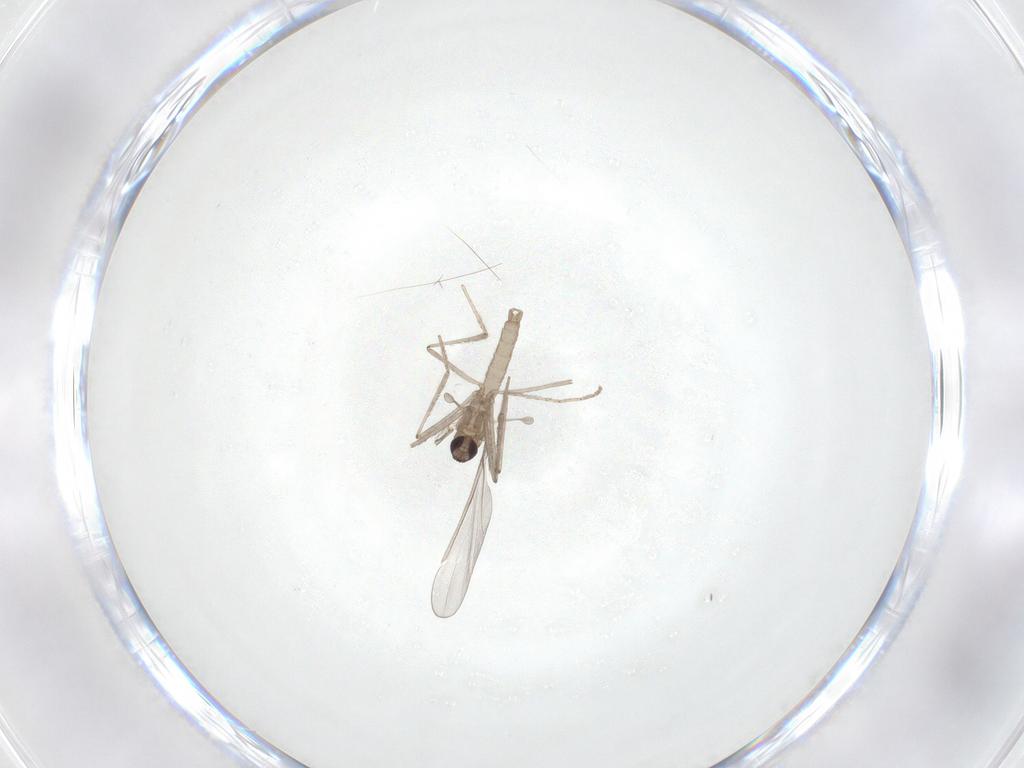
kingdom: Animalia
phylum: Arthropoda
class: Insecta
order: Diptera
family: Cecidomyiidae
